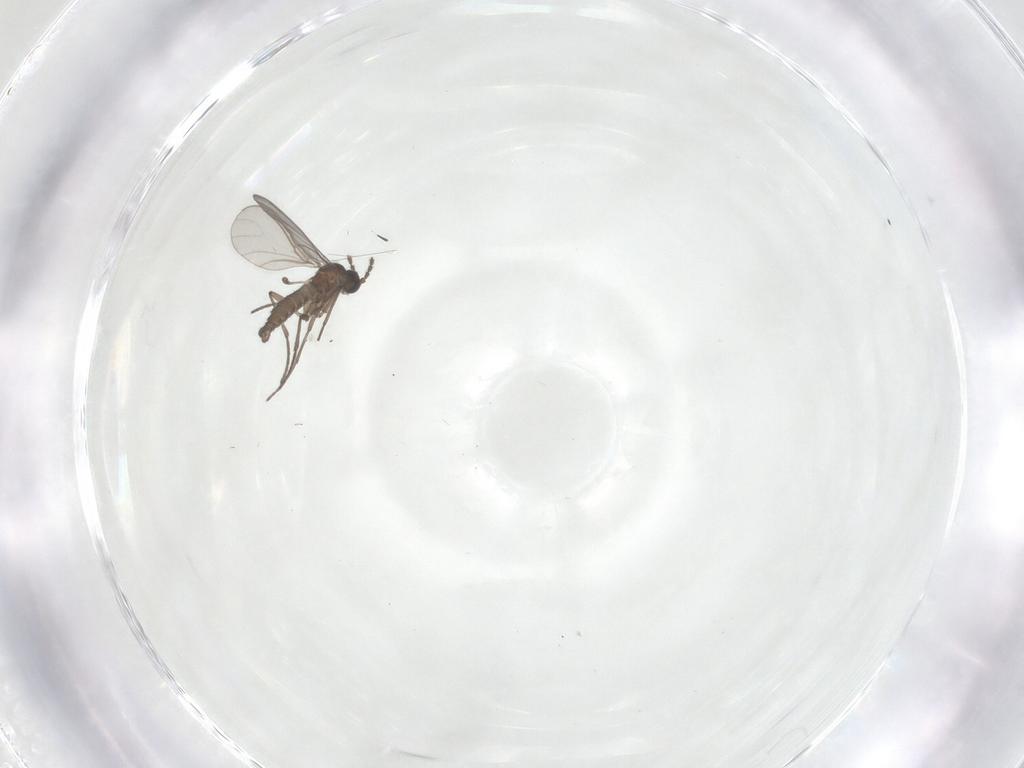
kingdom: Animalia
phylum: Arthropoda
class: Insecta
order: Diptera
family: Sciaridae
